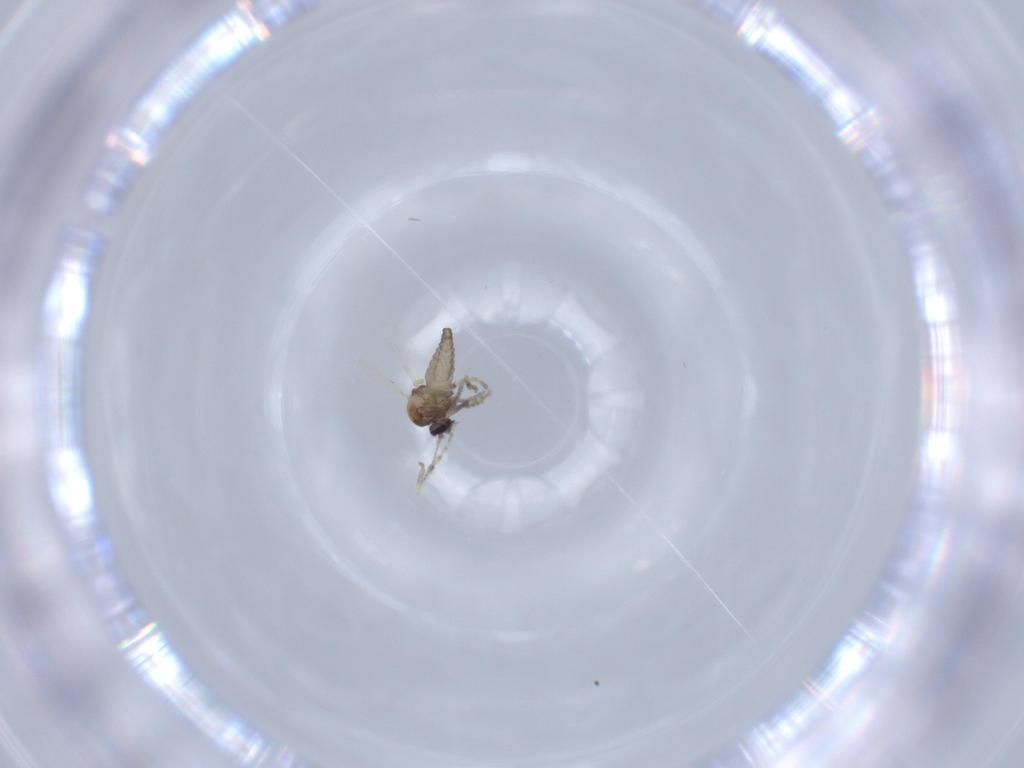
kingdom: Animalia
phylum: Arthropoda
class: Insecta
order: Diptera
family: Ceratopogonidae
